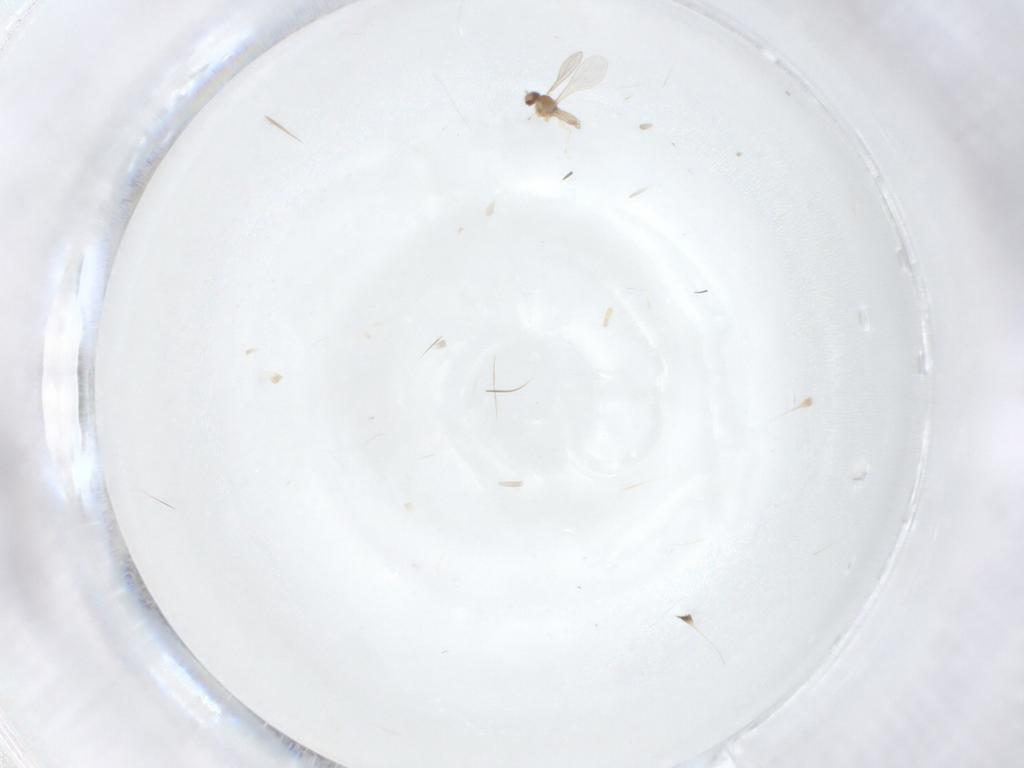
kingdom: Animalia
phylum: Arthropoda
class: Insecta
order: Diptera
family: Cecidomyiidae
